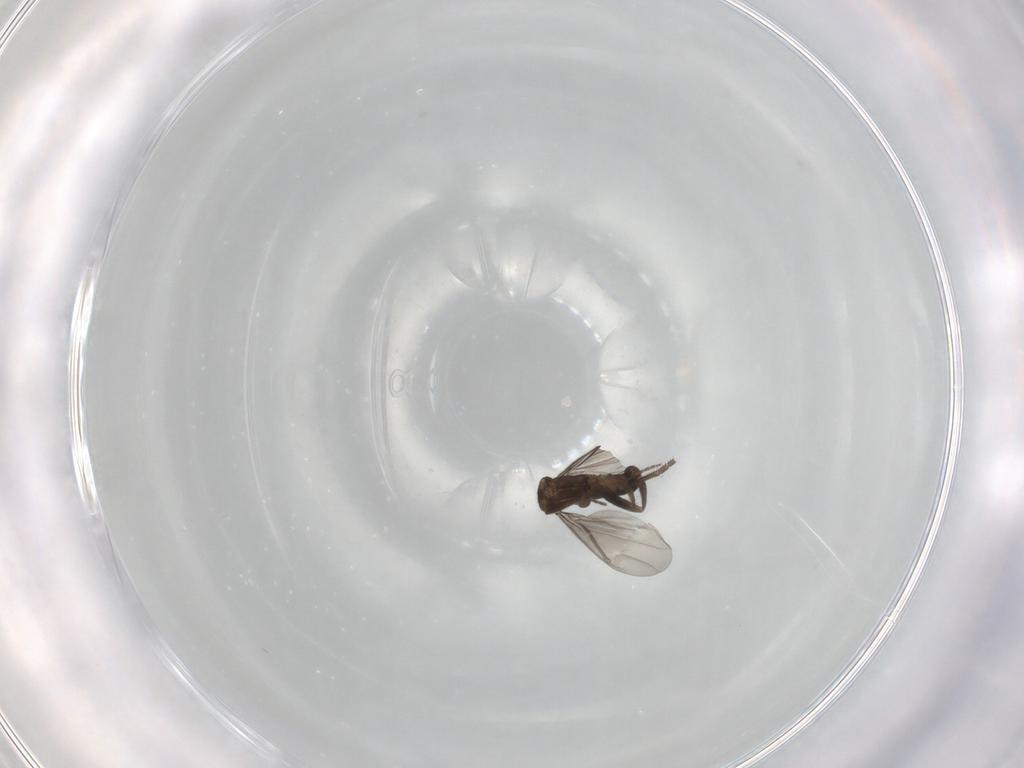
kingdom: Animalia
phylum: Arthropoda
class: Insecta
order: Diptera
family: Phoridae
